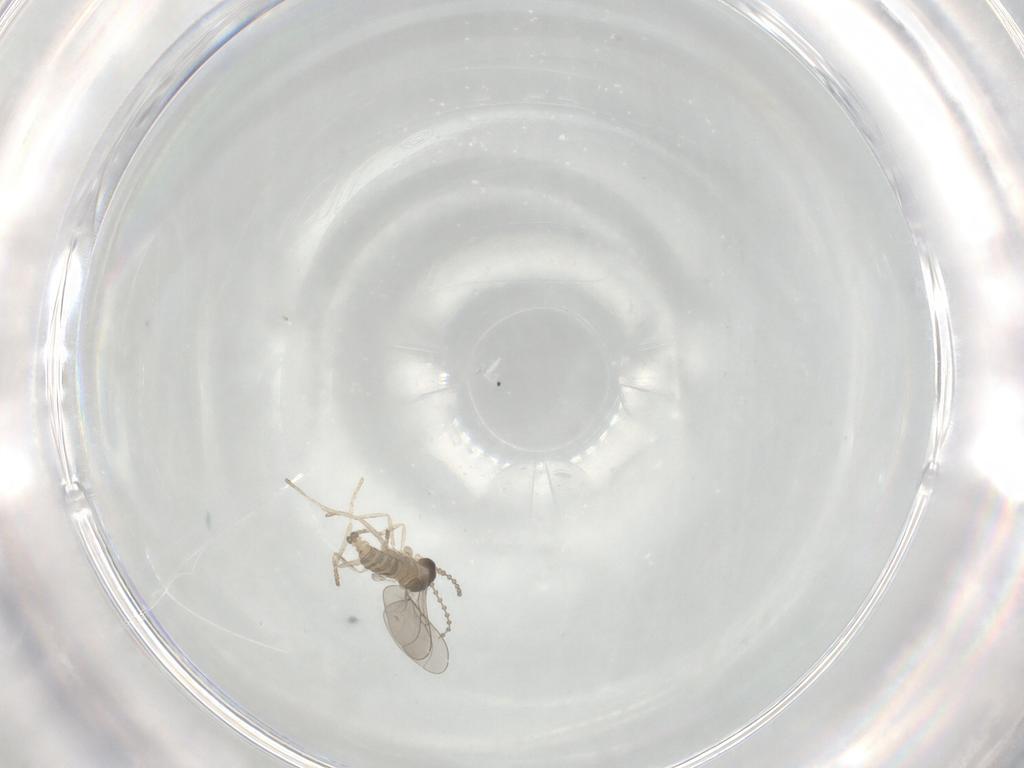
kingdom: Animalia
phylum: Arthropoda
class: Insecta
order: Diptera
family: Cecidomyiidae
